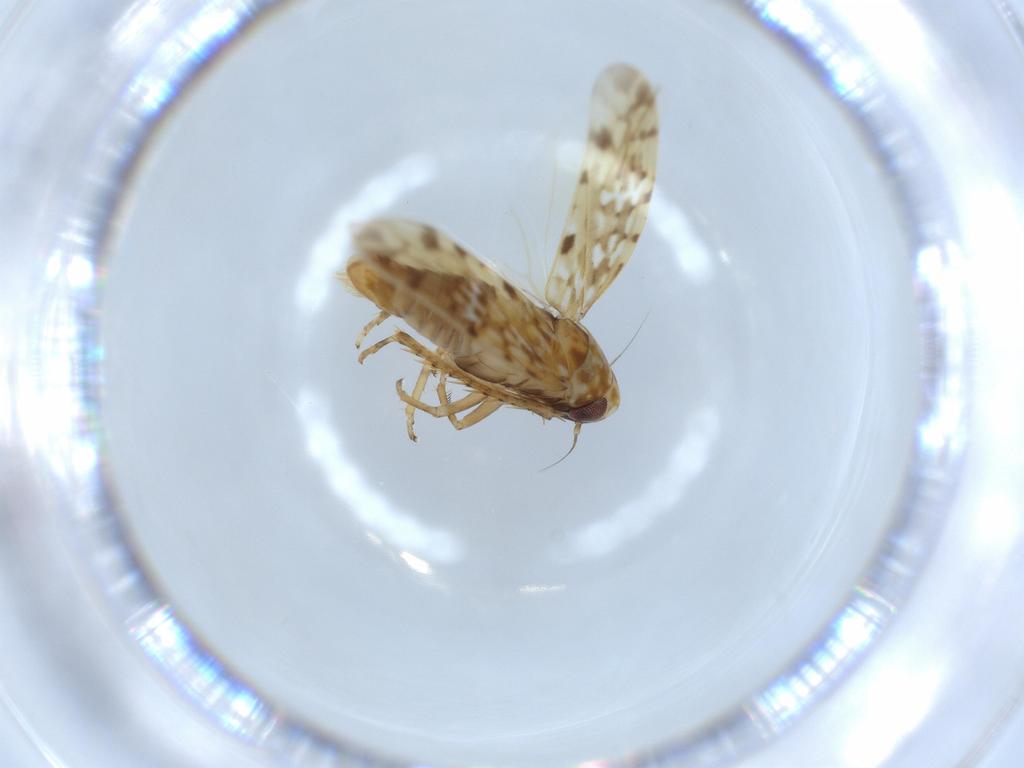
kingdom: Animalia
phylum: Arthropoda
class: Insecta
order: Hemiptera
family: Cicadellidae
